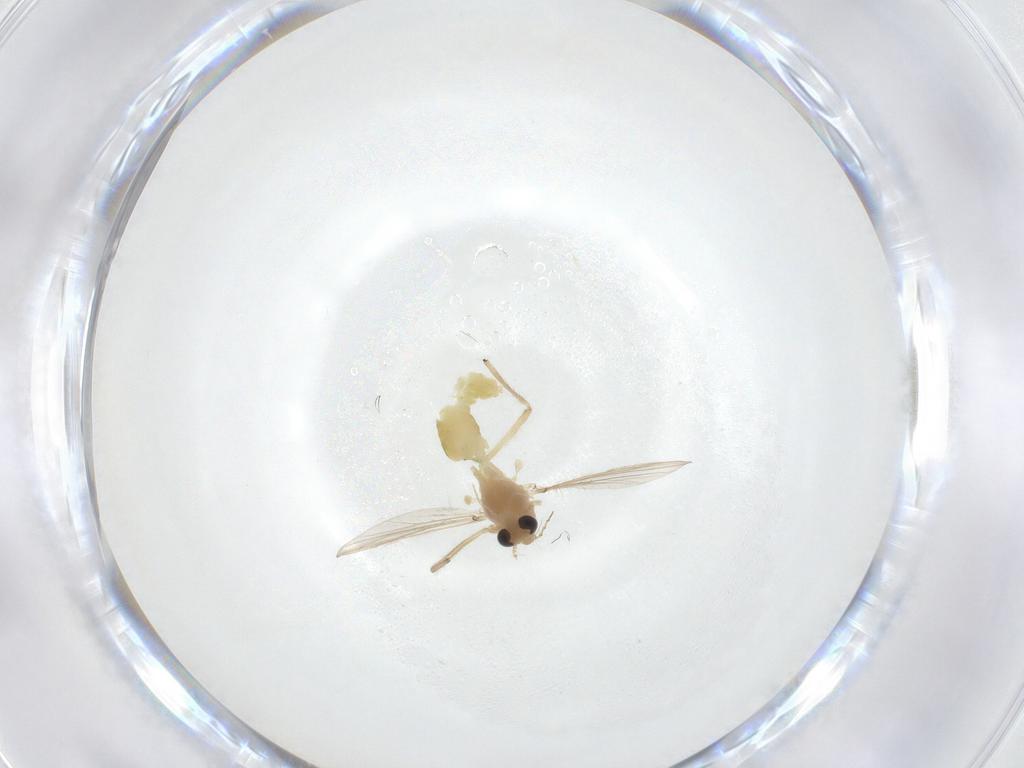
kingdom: Animalia
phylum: Arthropoda
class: Insecta
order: Diptera
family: Chironomidae
